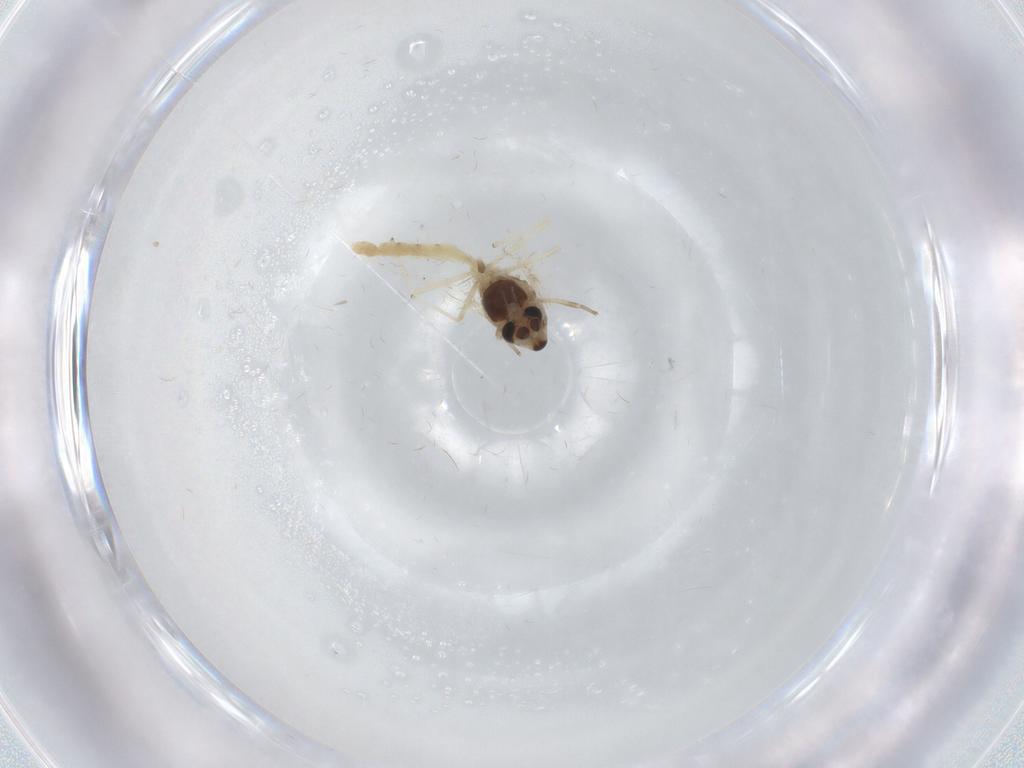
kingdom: Animalia
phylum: Arthropoda
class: Insecta
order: Diptera
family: Chironomidae
